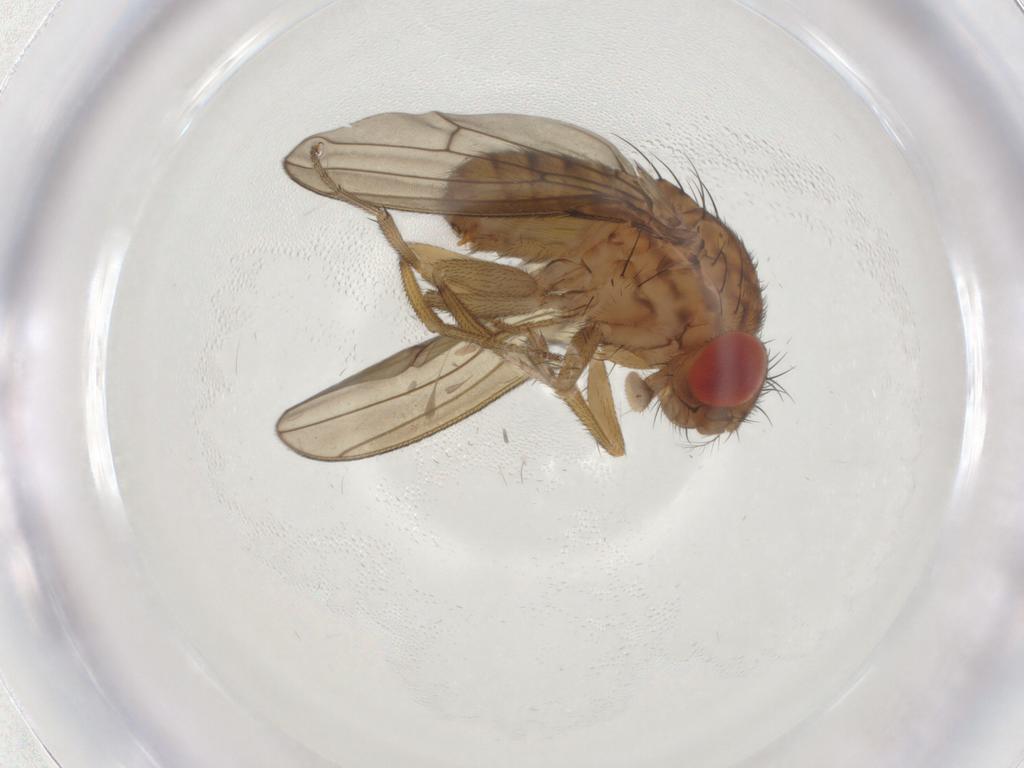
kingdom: Animalia
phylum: Arthropoda
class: Insecta
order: Diptera
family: Drosophilidae
